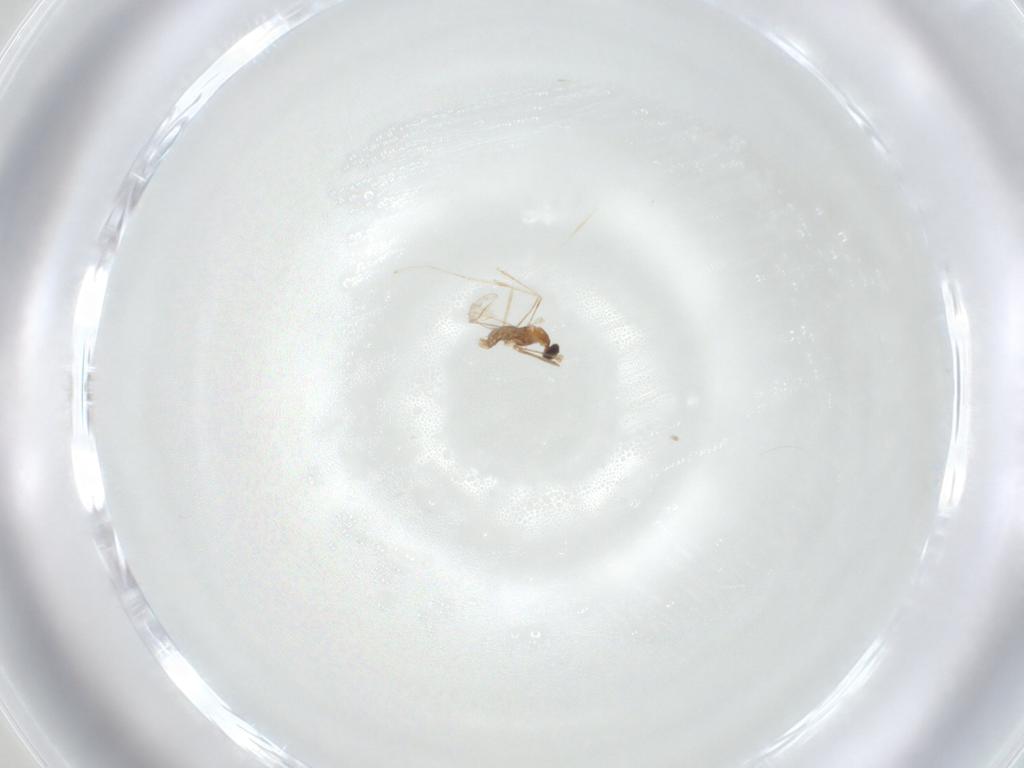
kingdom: Animalia
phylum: Arthropoda
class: Insecta
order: Diptera
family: Ceratopogonidae
